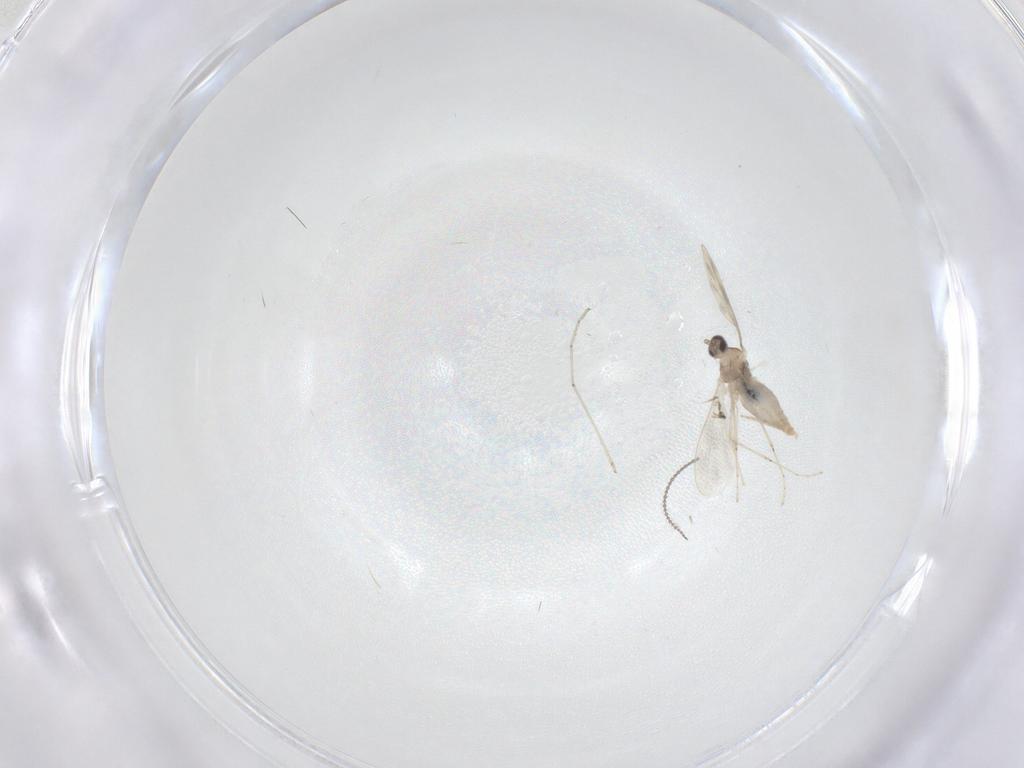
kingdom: Animalia
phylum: Arthropoda
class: Insecta
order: Diptera
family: Cecidomyiidae
